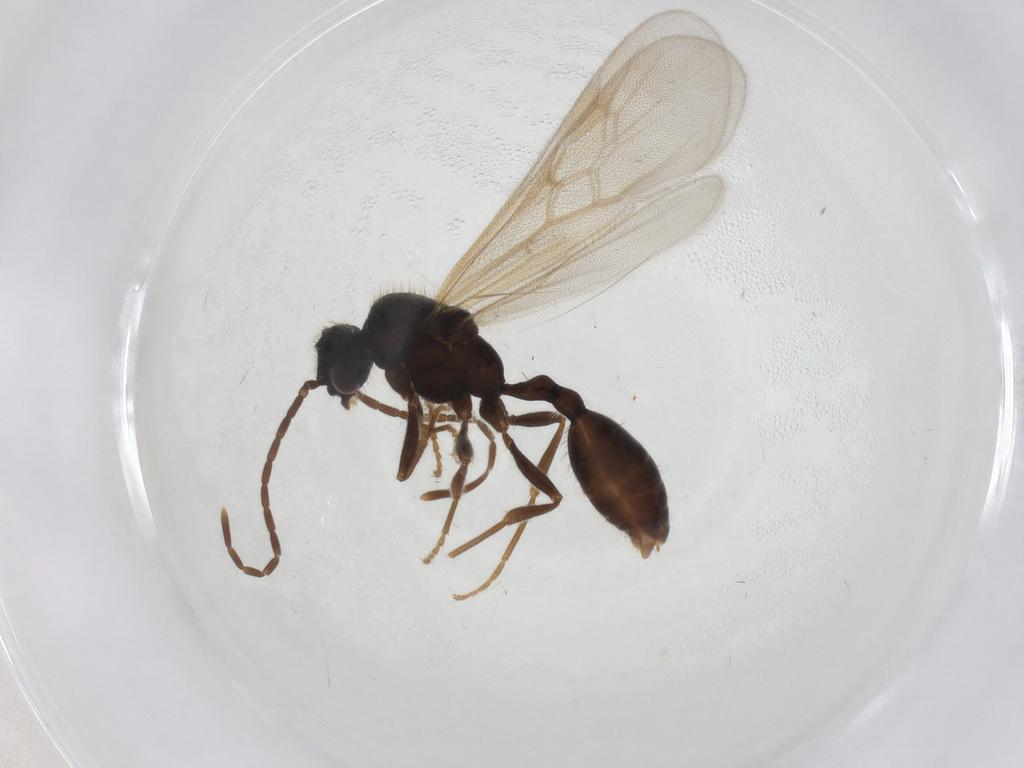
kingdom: Animalia
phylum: Arthropoda
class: Insecta
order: Hymenoptera
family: Formicidae
